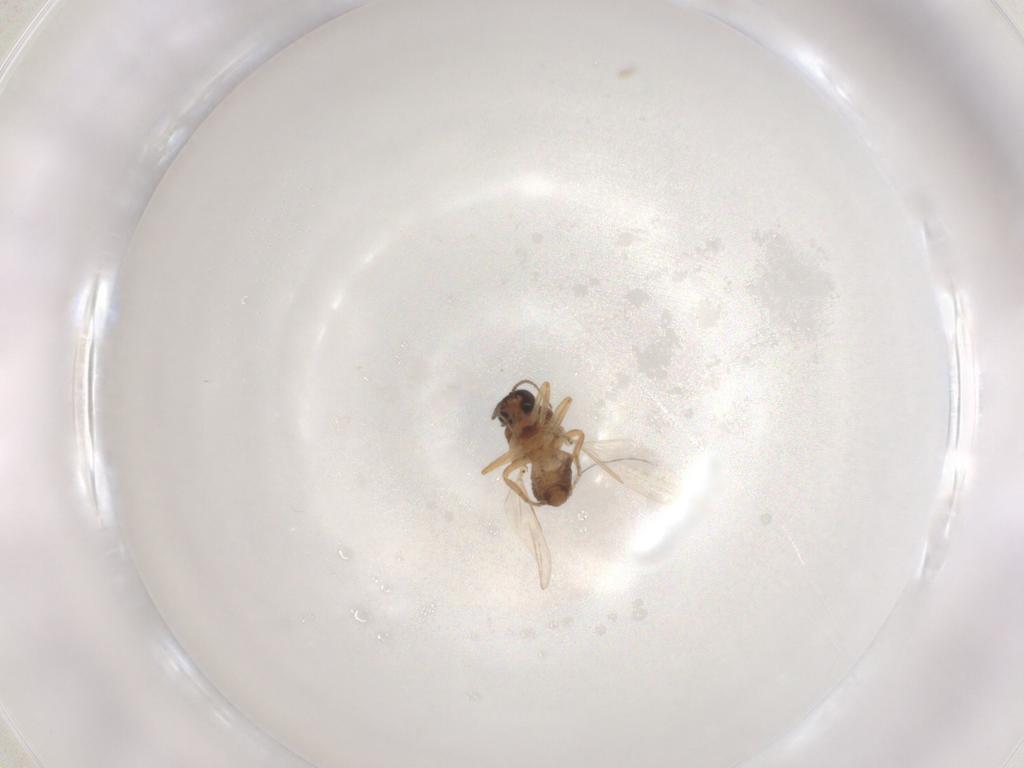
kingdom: Animalia
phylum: Arthropoda
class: Insecta
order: Diptera
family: Ceratopogonidae
